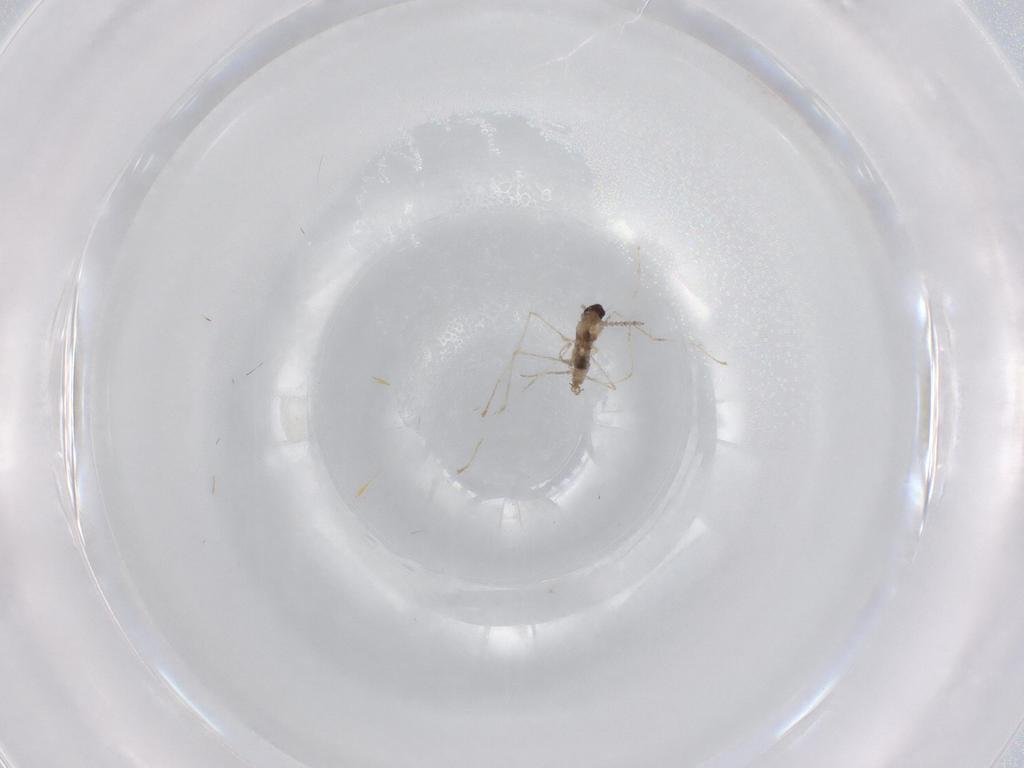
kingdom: Animalia
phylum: Arthropoda
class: Insecta
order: Diptera
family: Cecidomyiidae
